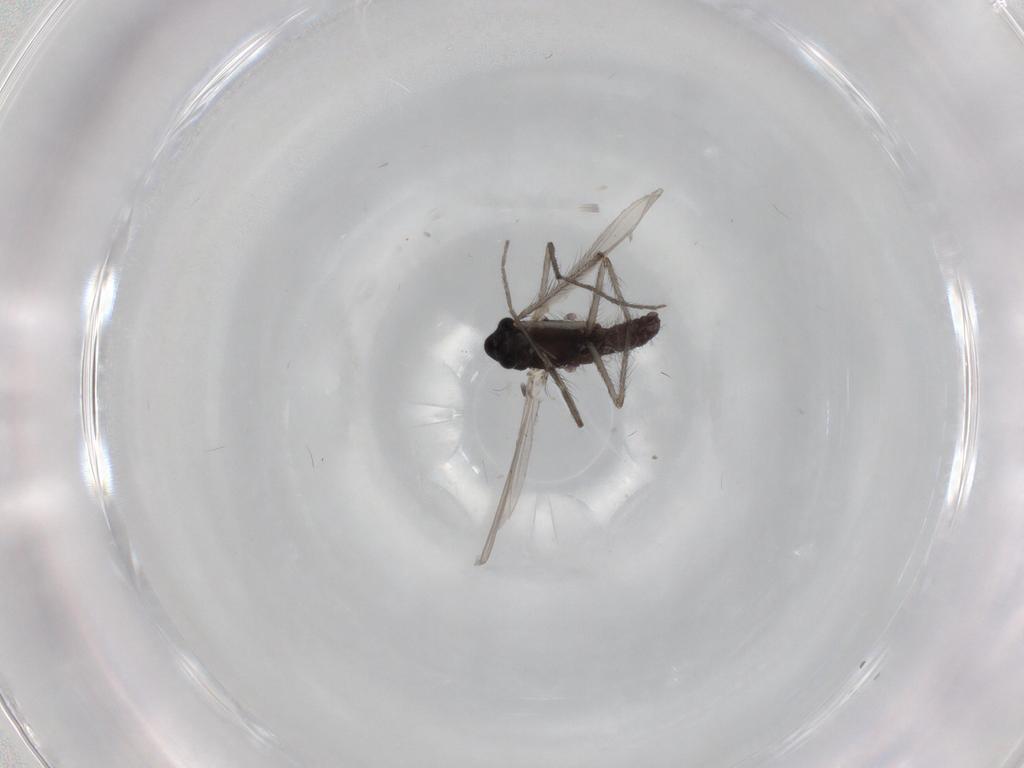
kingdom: Animalia
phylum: Arthropoda
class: Insecta
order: Diptera
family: Chironomidae
